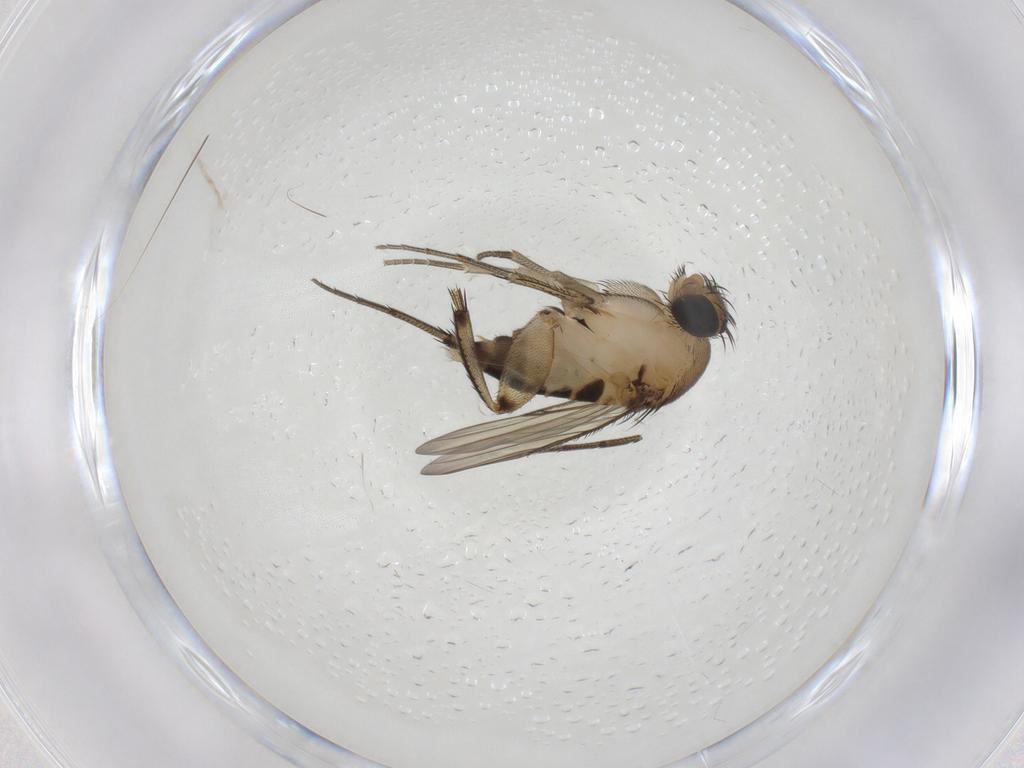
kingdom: Animalia
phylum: Arthropoda
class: Insecta
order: Diptera
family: Phoridae
